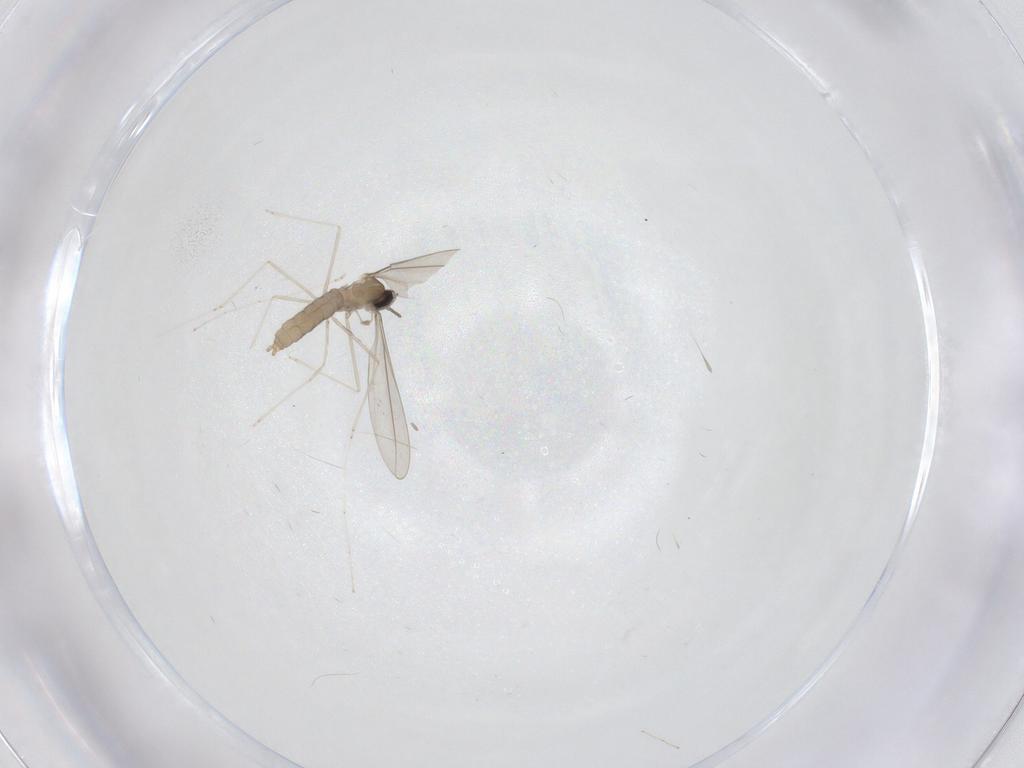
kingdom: Animalia
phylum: Arthropoda
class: Insecta
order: Diptera
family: Cecidomyiidae
